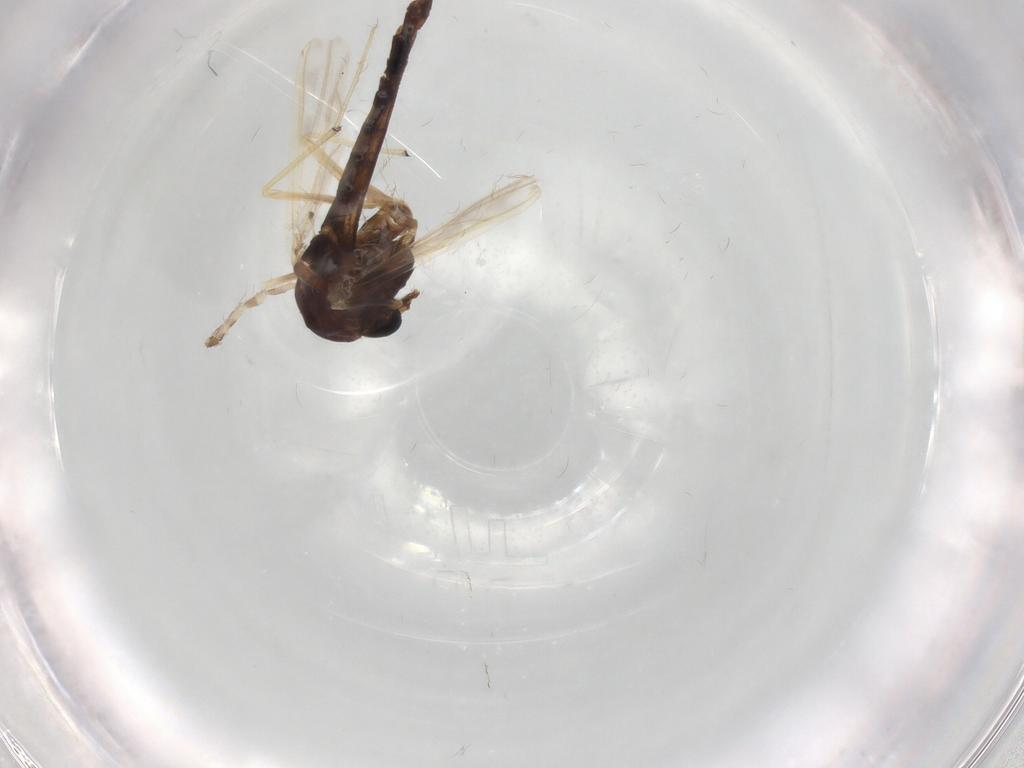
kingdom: Animalia
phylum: Arthropoda
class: Insecta
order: Diptera
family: Chironomidae
